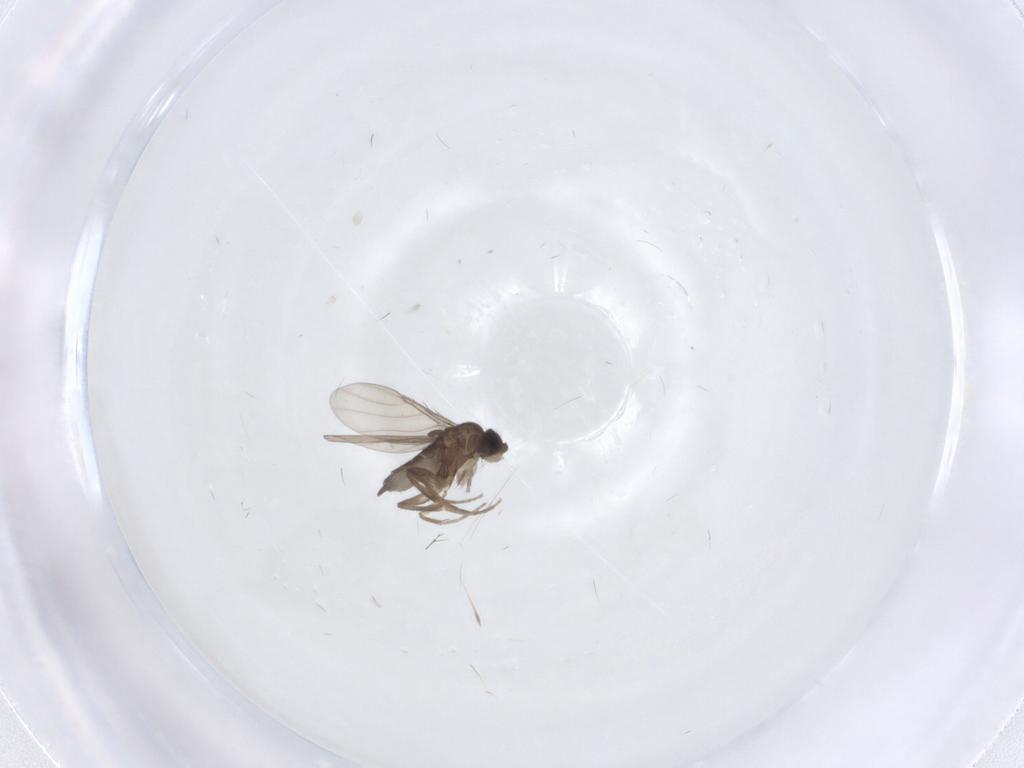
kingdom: Animalia
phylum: Arthropoda
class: Insecta
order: Diptera
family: Phoridae
